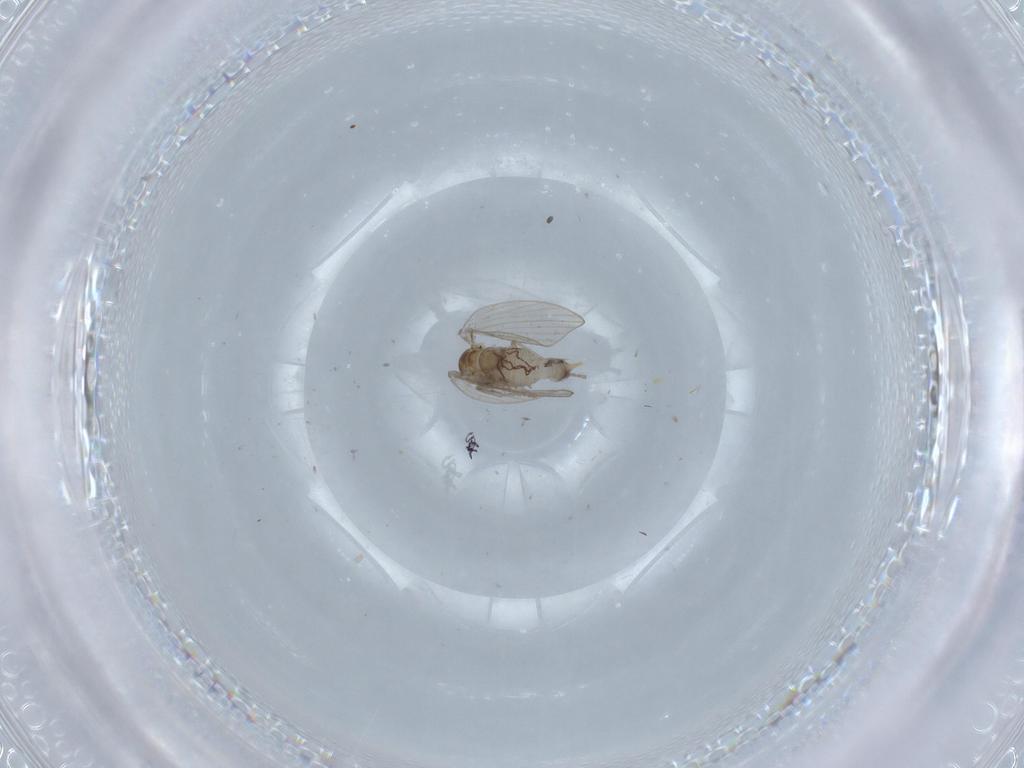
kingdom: Animalia
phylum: Arthropoda
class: Insecta
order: Diptera
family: Psychodidae
